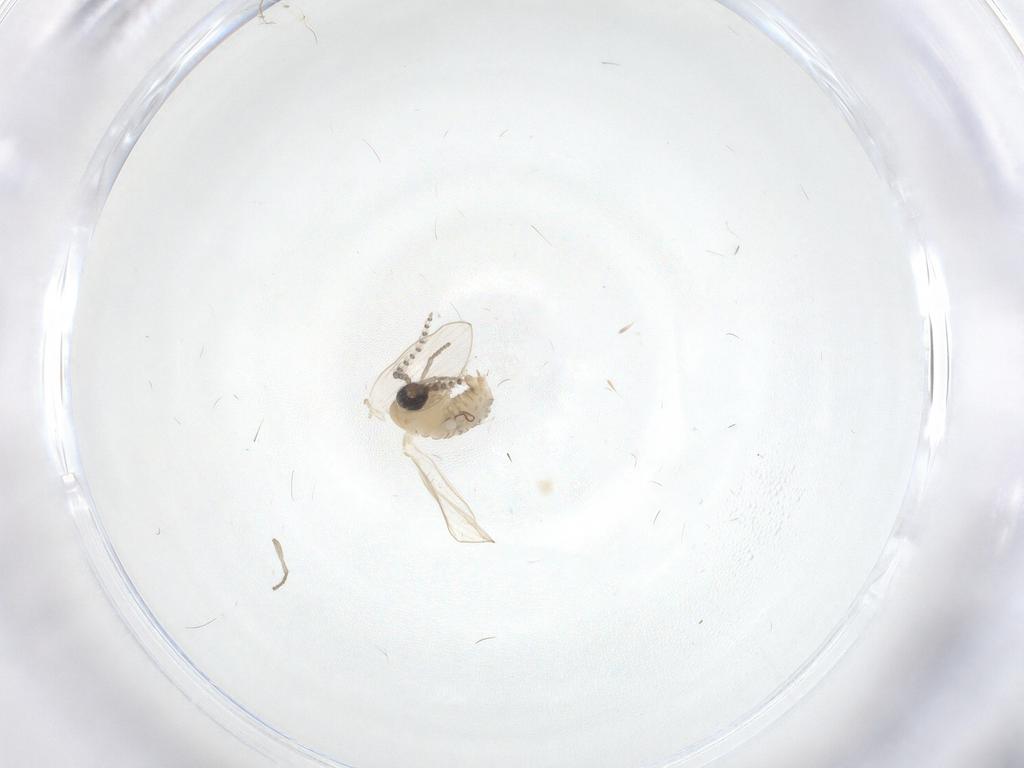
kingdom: Animalia
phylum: Arthropoda
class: Insecta
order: Diptera
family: Psychodidae
